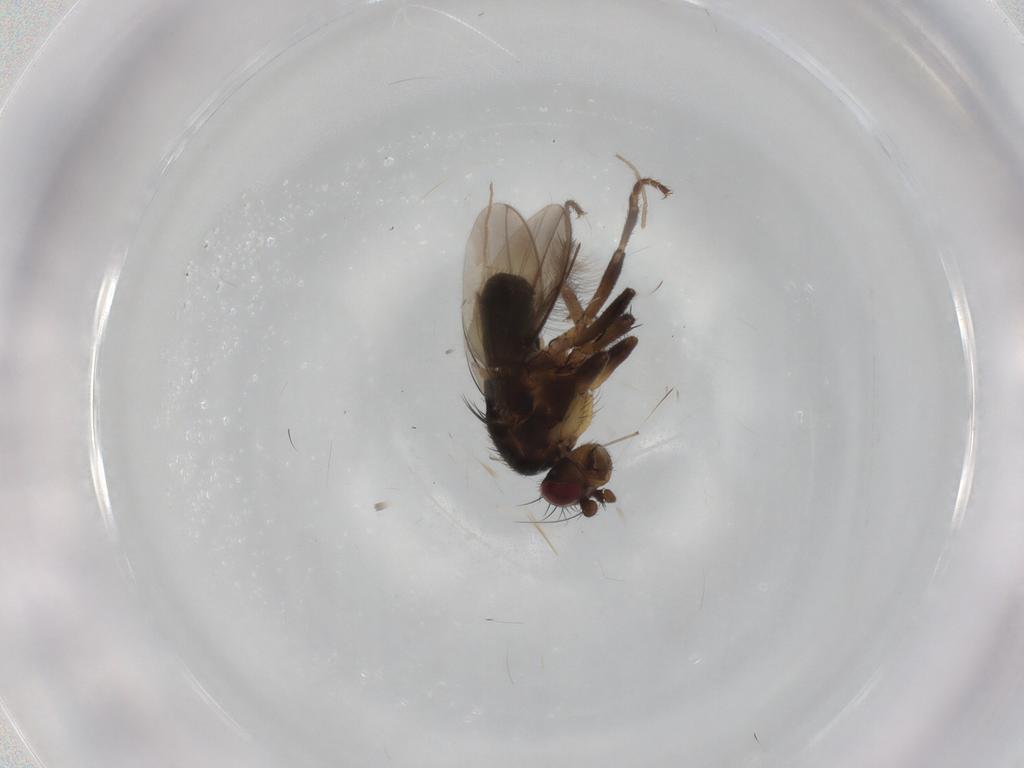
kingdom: Animalia
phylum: Arthropoda
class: Insecta
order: Diptera
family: Sphaeroceridae
